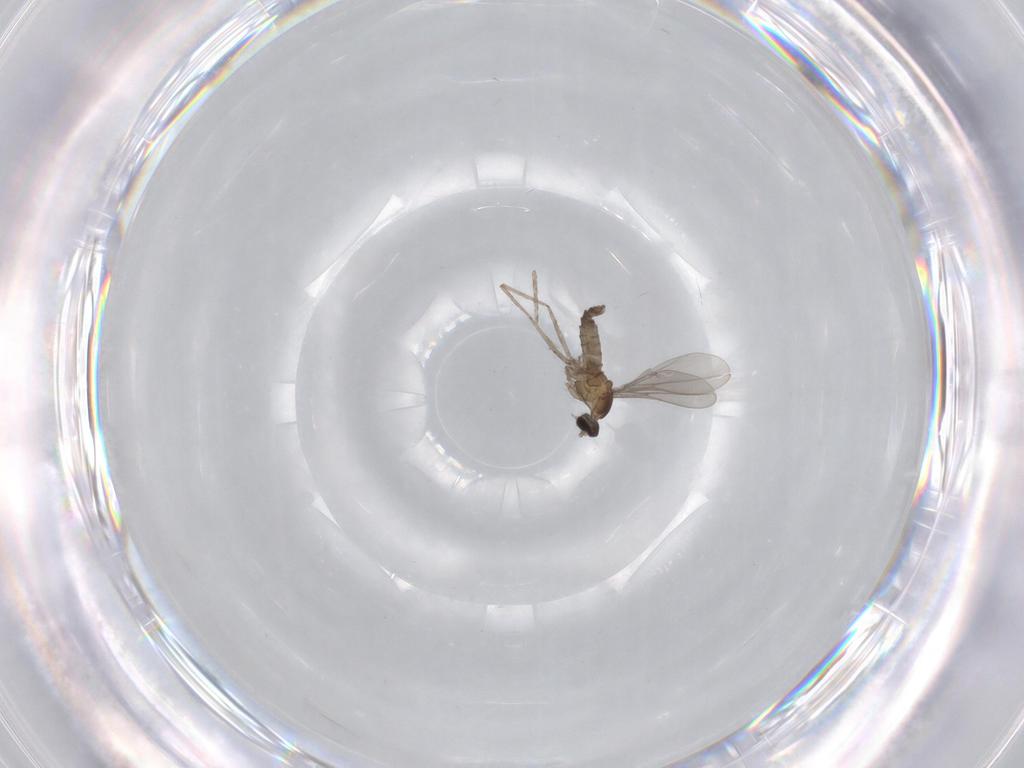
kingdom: Animalia
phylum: Arthropoda
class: Insecta
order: Diptera
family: Cecidomyiidae
